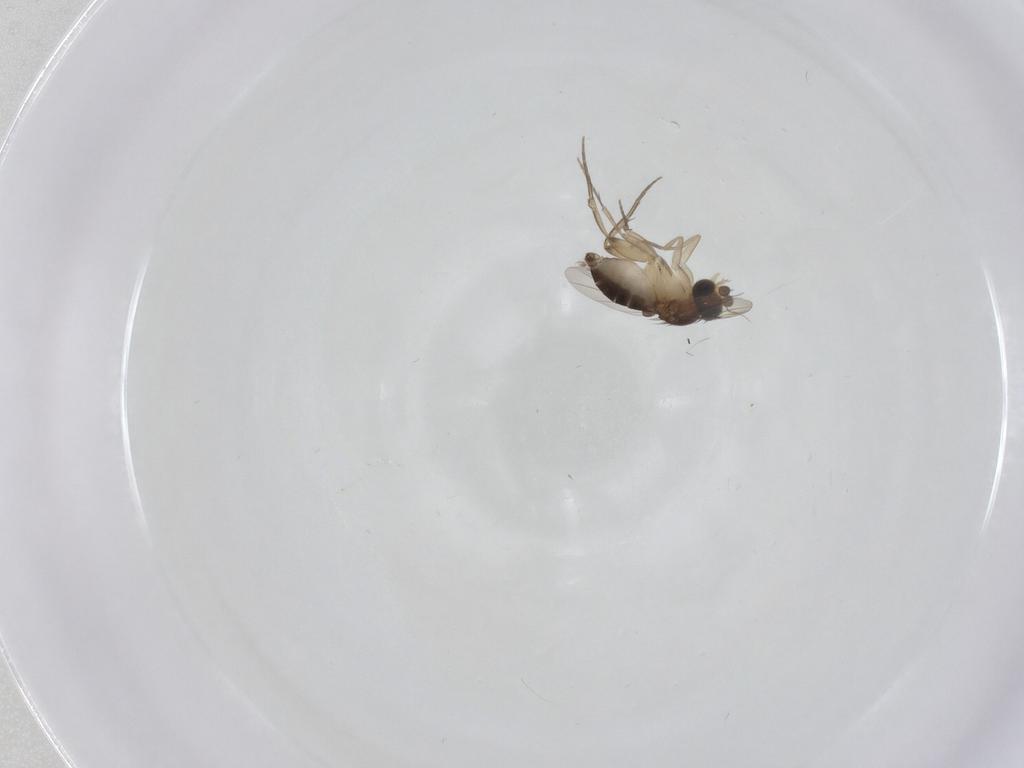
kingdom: Animalia
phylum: Arthropoda
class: Insecta
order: Diptera
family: Phoridae
